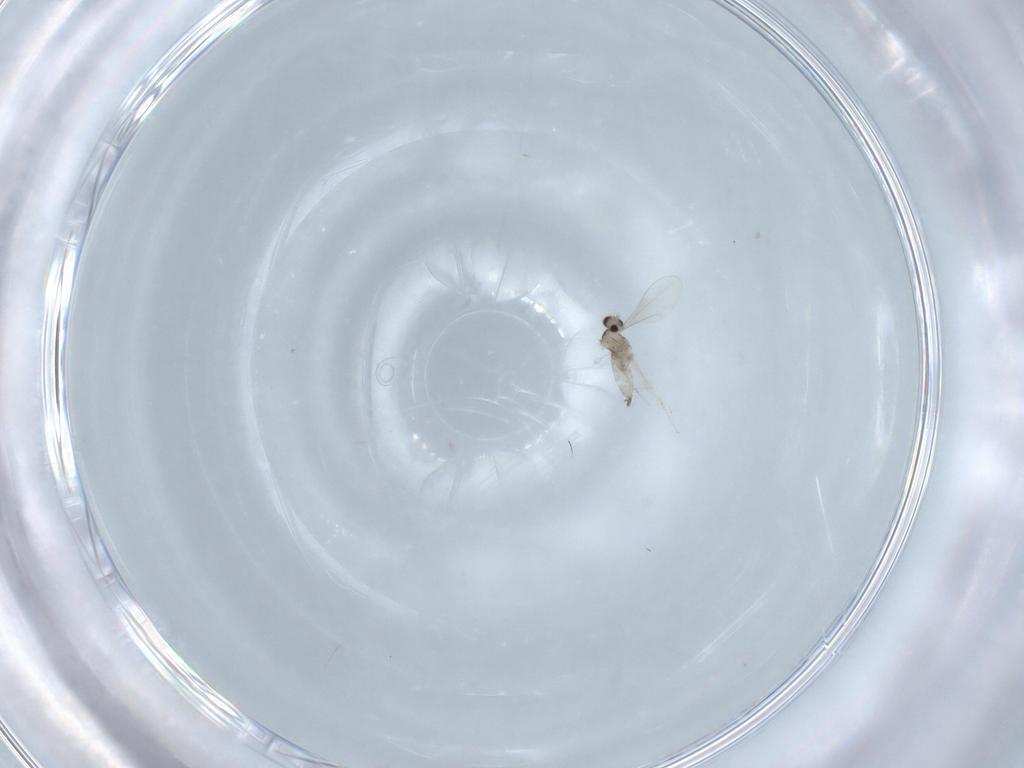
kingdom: Animalia
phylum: Arthropoda
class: Insecta
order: Diptera
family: Cecidomyiidae
